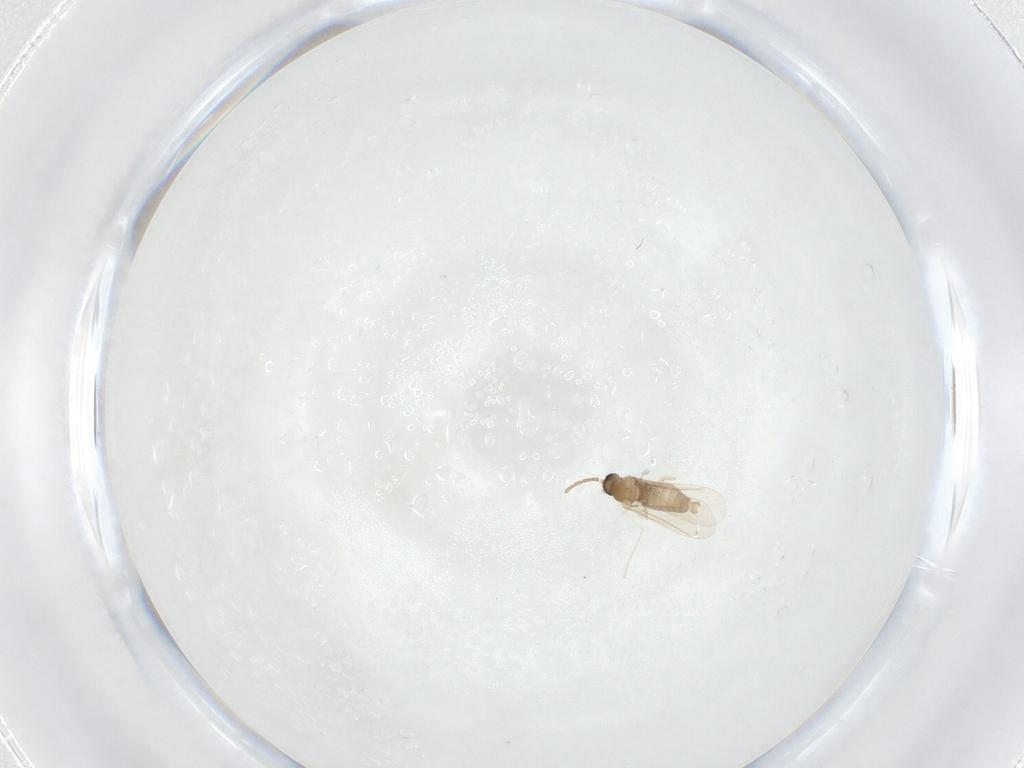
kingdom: Animalia
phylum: Arthropoda
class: Insecta
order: Diptera
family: Cecidomyiidae
